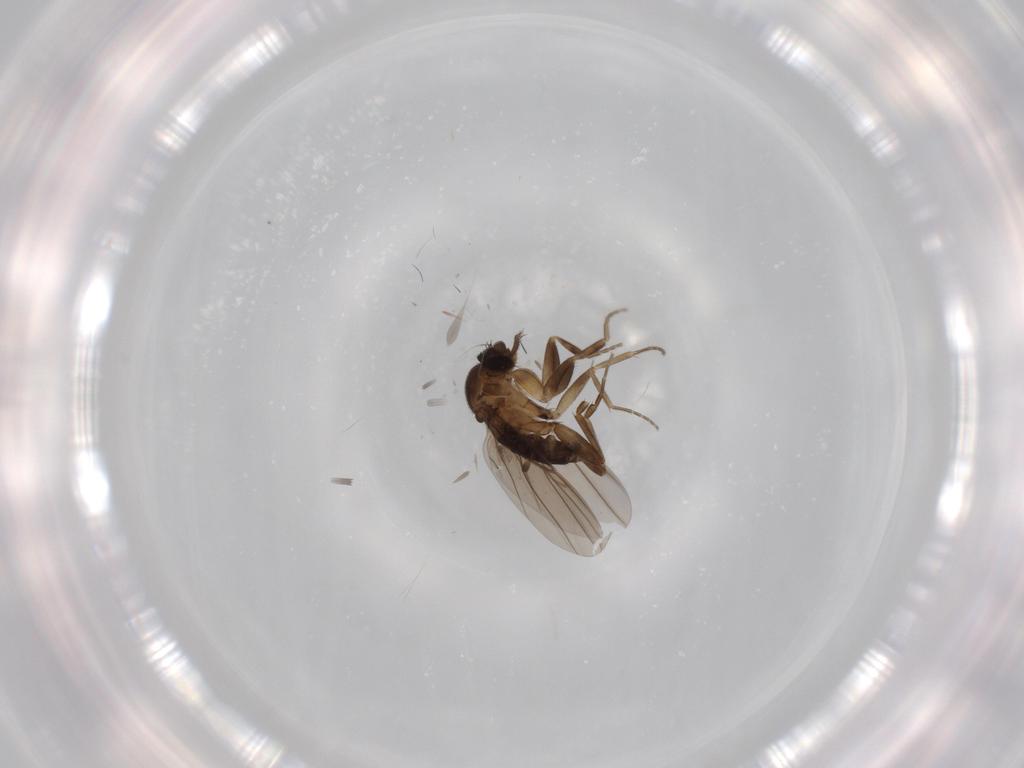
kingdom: Animalia
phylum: Arthropoda
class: Insecta
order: Diptera
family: Phoridae
